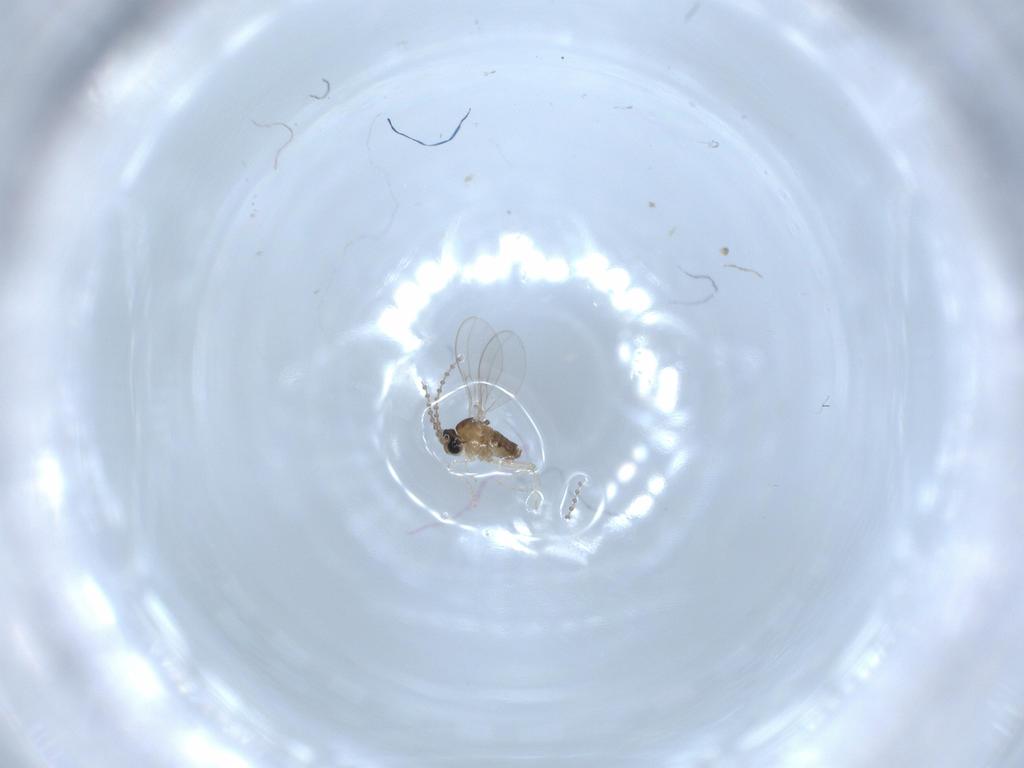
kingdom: Animalia
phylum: Arthropoda
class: Insecta
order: Diptera
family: Cecidomyiidae
